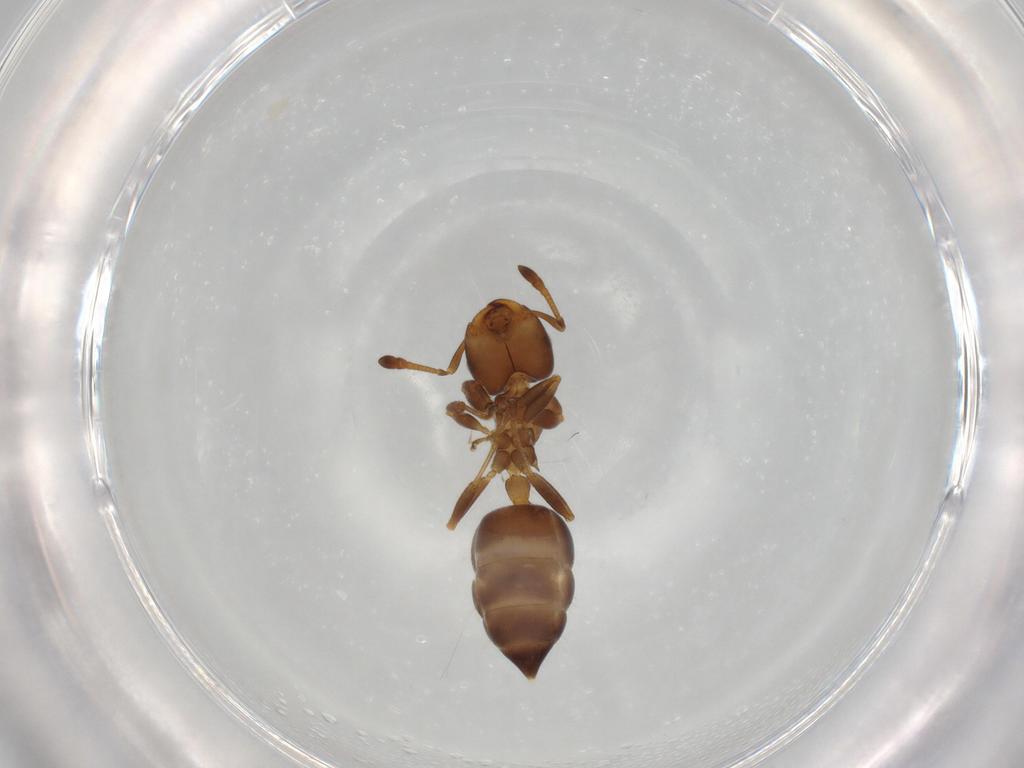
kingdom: Animalia
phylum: Arthropoda
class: Insecta
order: Hymenoptera
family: Formicidae
